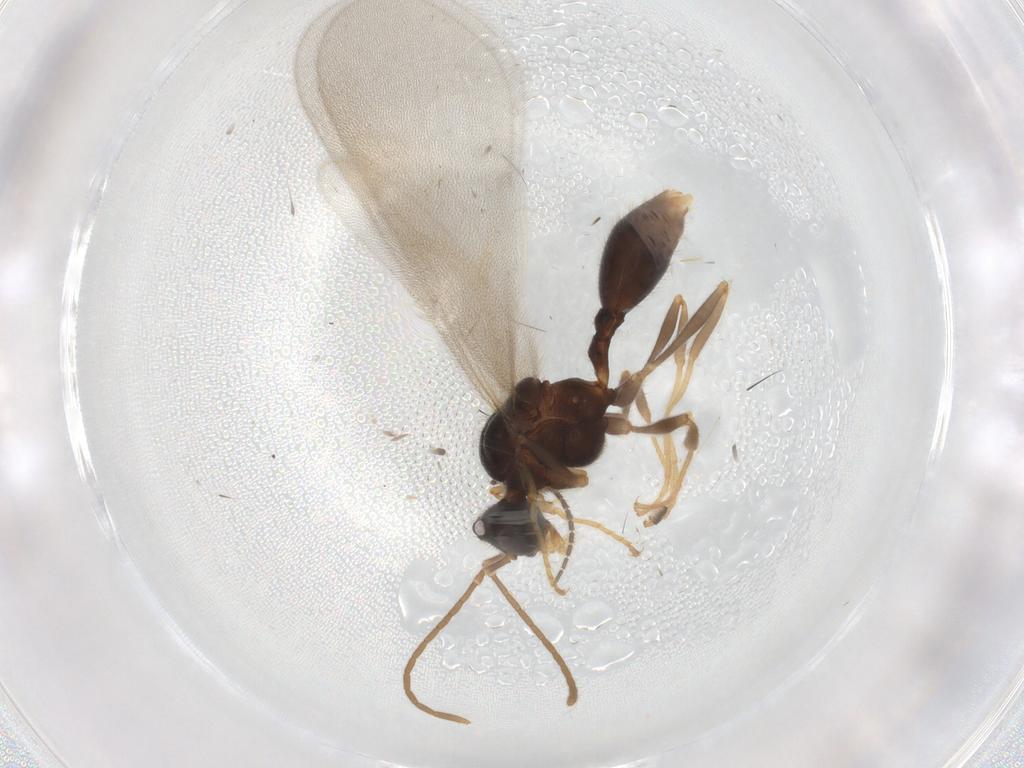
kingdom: Animalia
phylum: Arthropoda
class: Insecta
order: Hymenoptera
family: Formicidae
